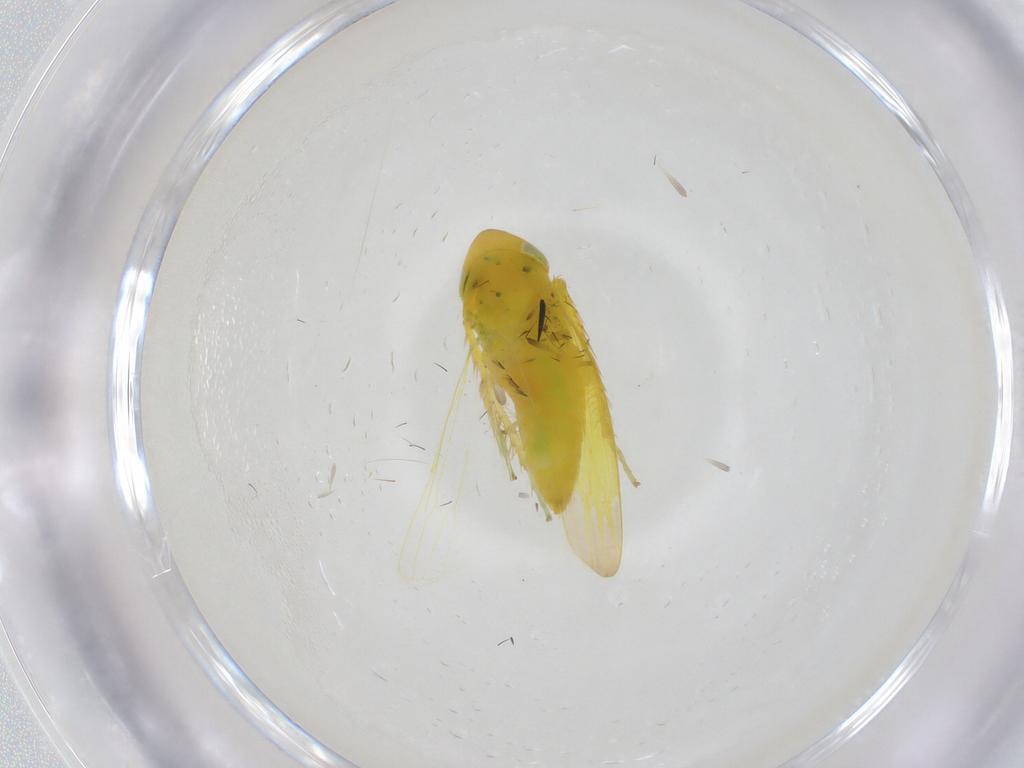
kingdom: Animalia
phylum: Arthropoda
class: Insecta
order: Hemiptera
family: Cicadellidae
